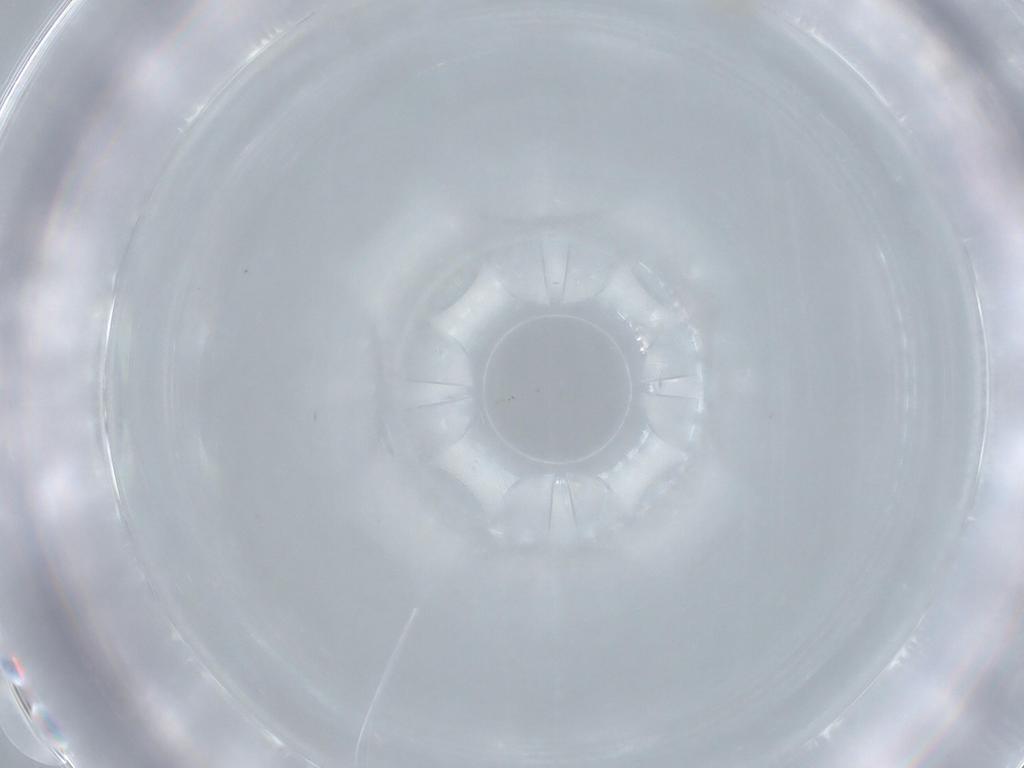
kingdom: Animalia
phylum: Arthropoda
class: Insecta
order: Diptera
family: Cecidomyiidae
